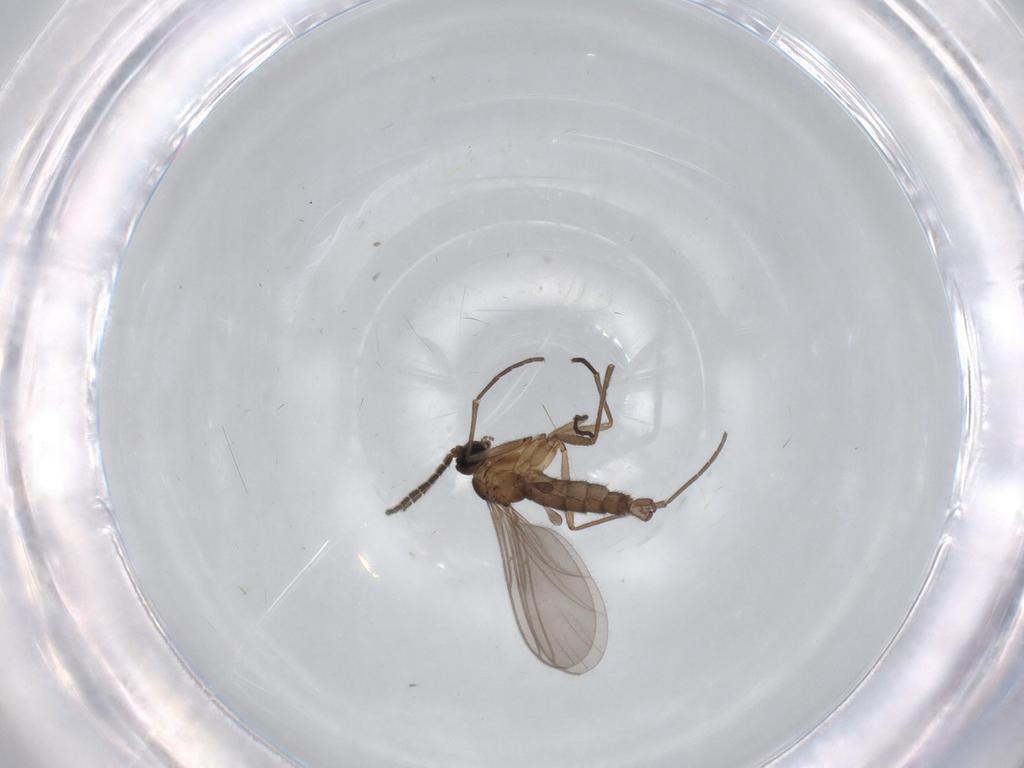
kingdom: Animalia
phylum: Arthropoda
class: Insecta
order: Diptera
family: Sciaridae
